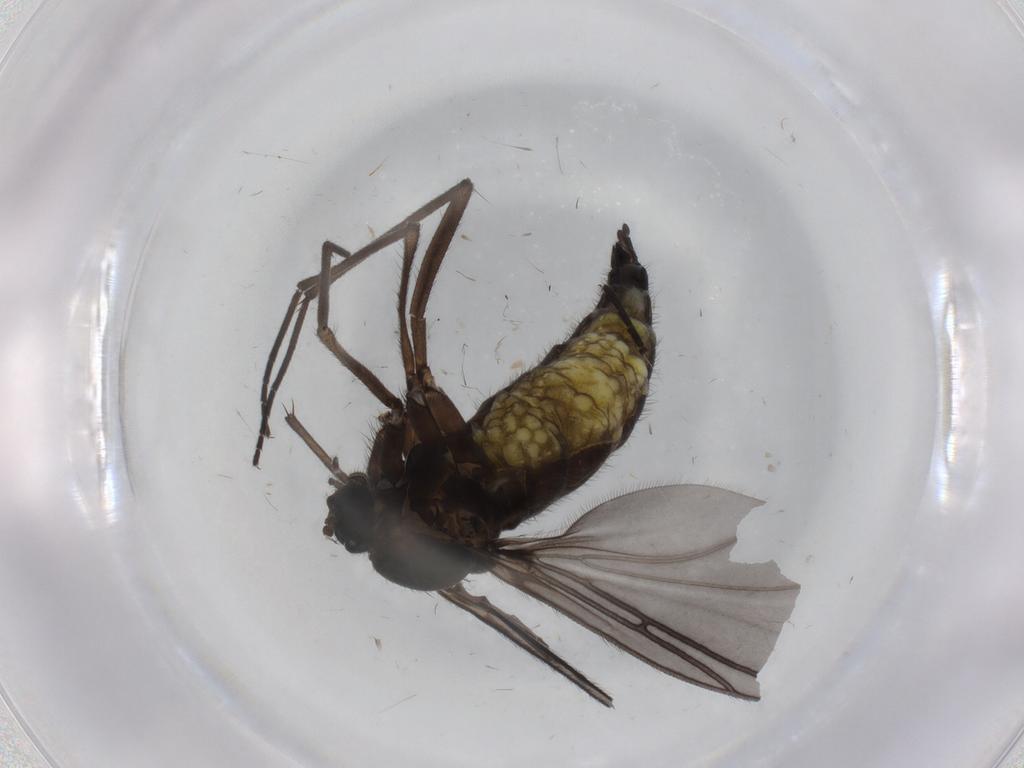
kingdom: Animalia
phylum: Arthropoda
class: Insecta
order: Diptera
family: Sciaridae
